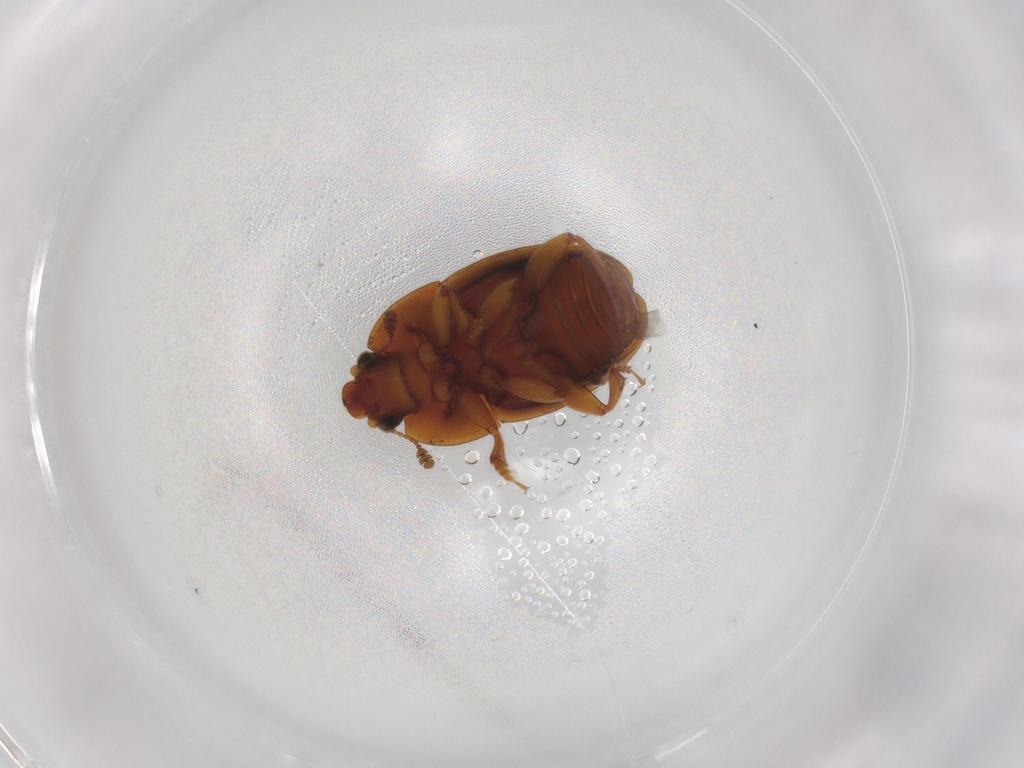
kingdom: Animalia
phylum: Arthropoda
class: Insecta
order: Coleoptera
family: Nitidulidae
